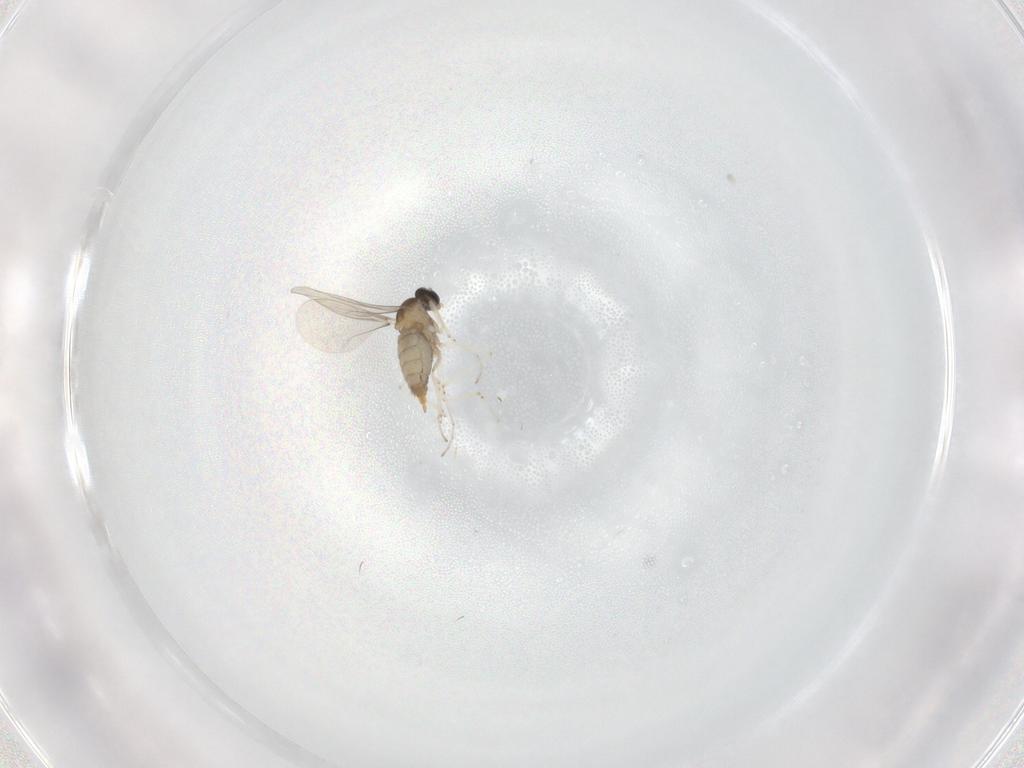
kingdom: Animalia
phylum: Arthropoda
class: Insecta
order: Diptera
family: Cecidomyiidae
